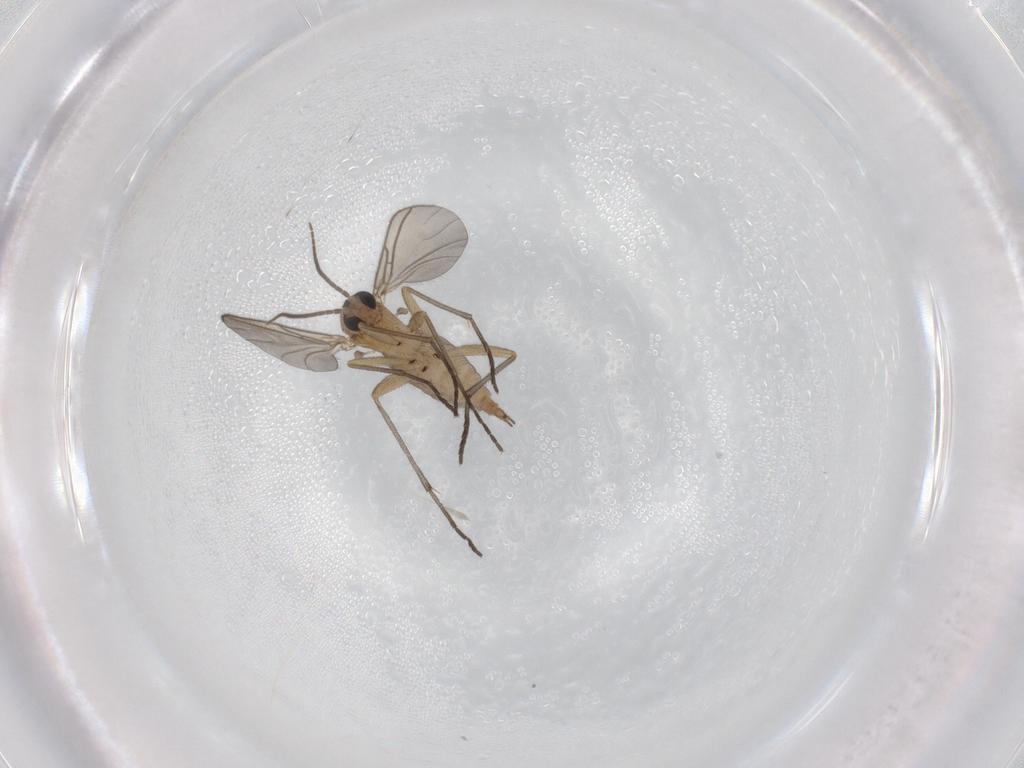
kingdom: Animalia
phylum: Arthropoda
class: Insecta
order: Diptera
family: Sciaridae
